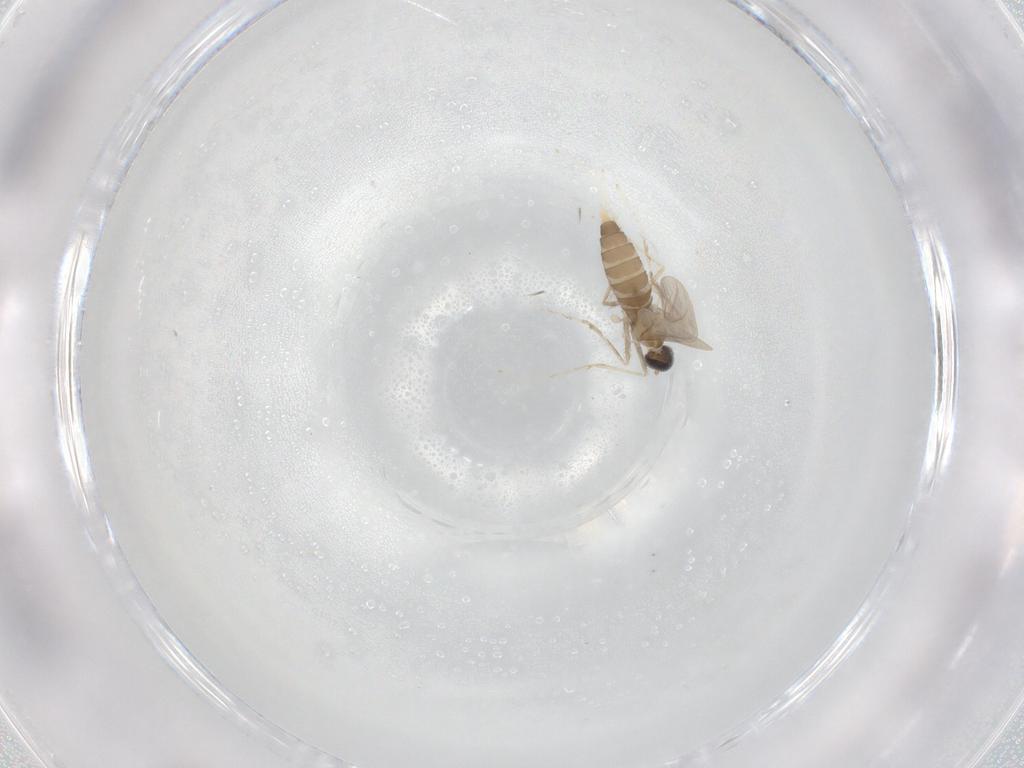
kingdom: Animalia
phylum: Arthropoda
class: Insecta
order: Diptera
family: Cecidomyiidae
